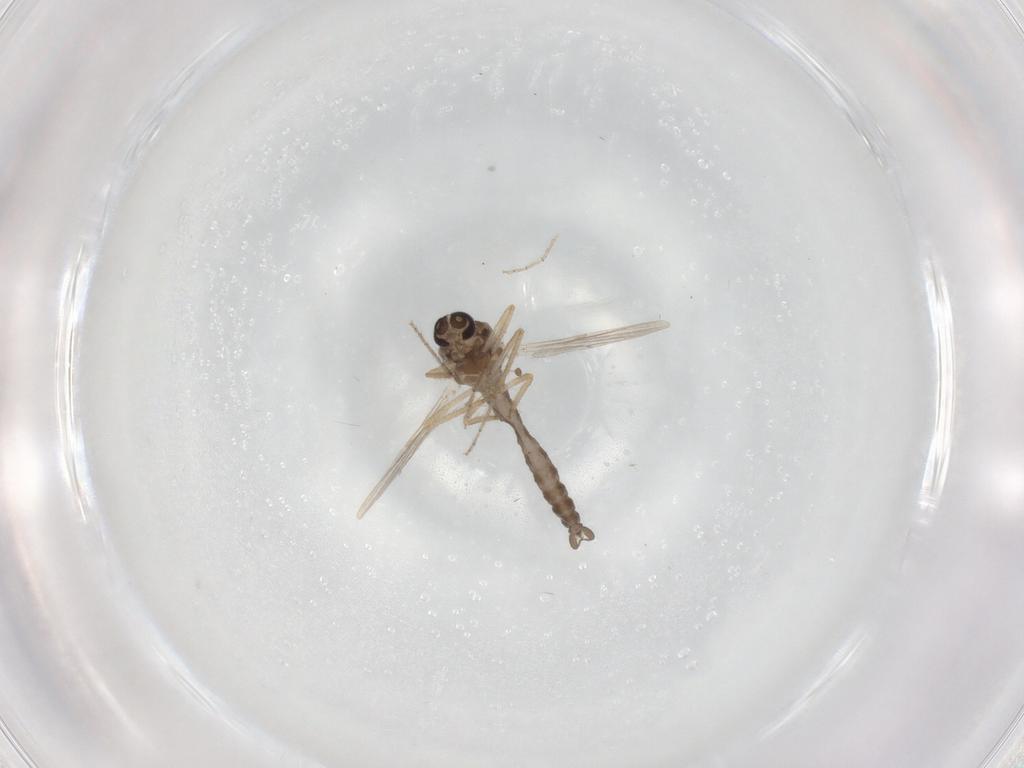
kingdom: Animalia
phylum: Arthropoda
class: Insecta
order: Diptera
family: Ceratopogonidae
